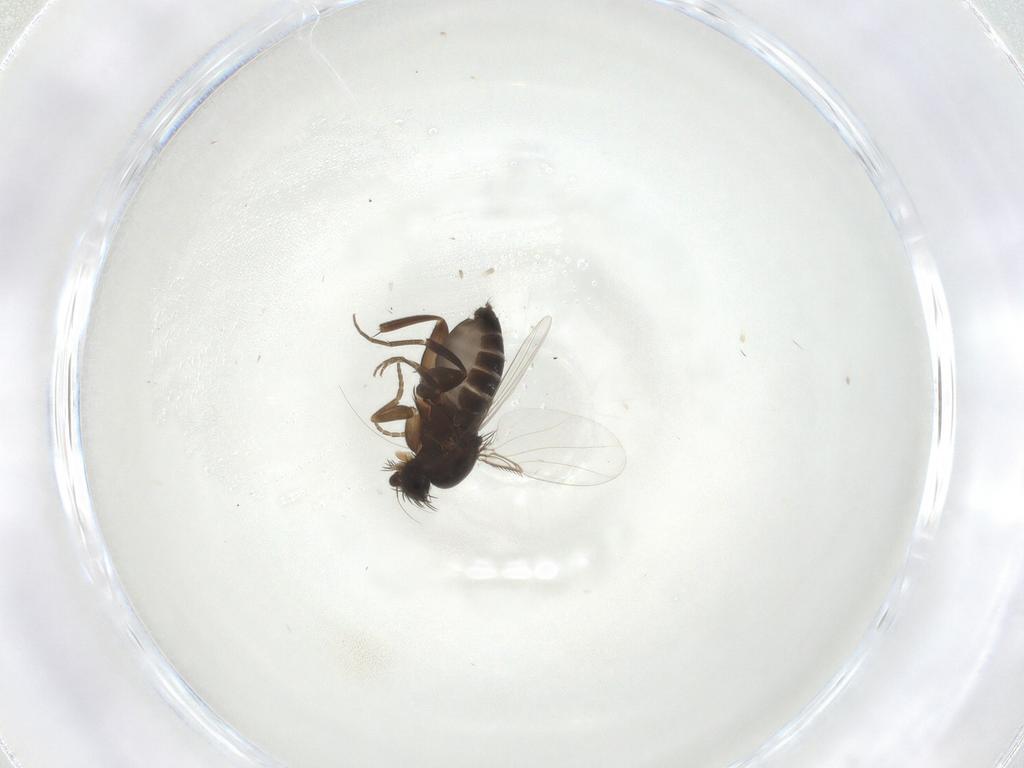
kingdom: Animalia
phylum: Arthropoda
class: Insecta
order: Diptera
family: Phoridae
